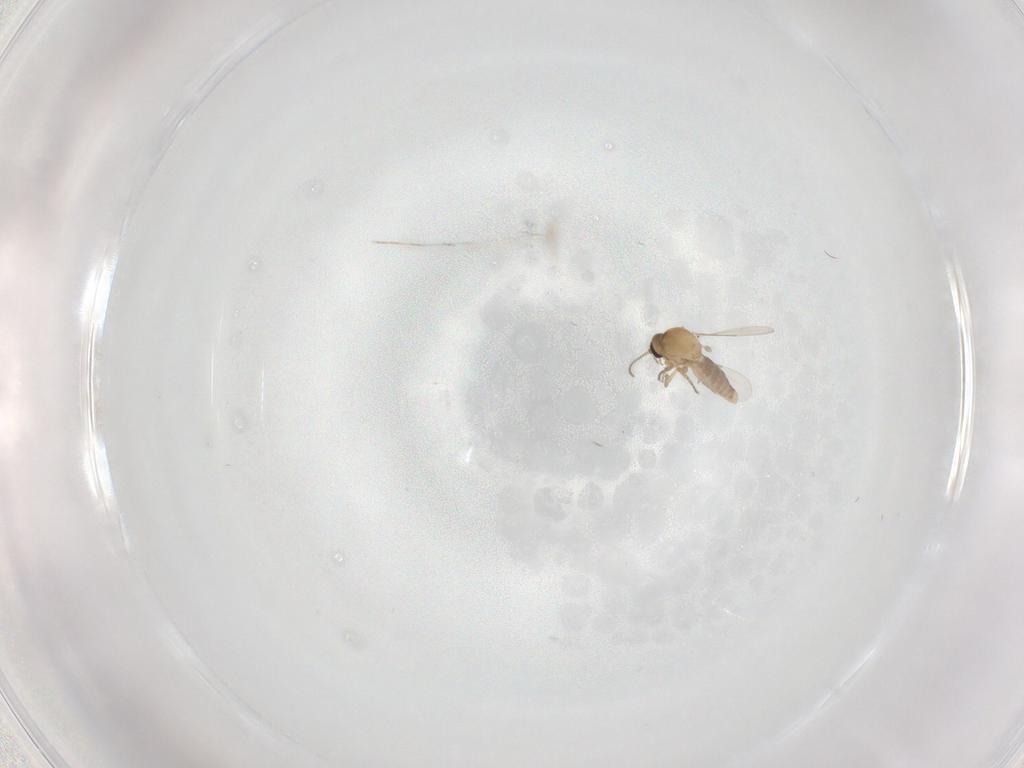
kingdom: Animalia
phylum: Arthropoda
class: Insecta
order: Diptera
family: Ceratopogonidae
